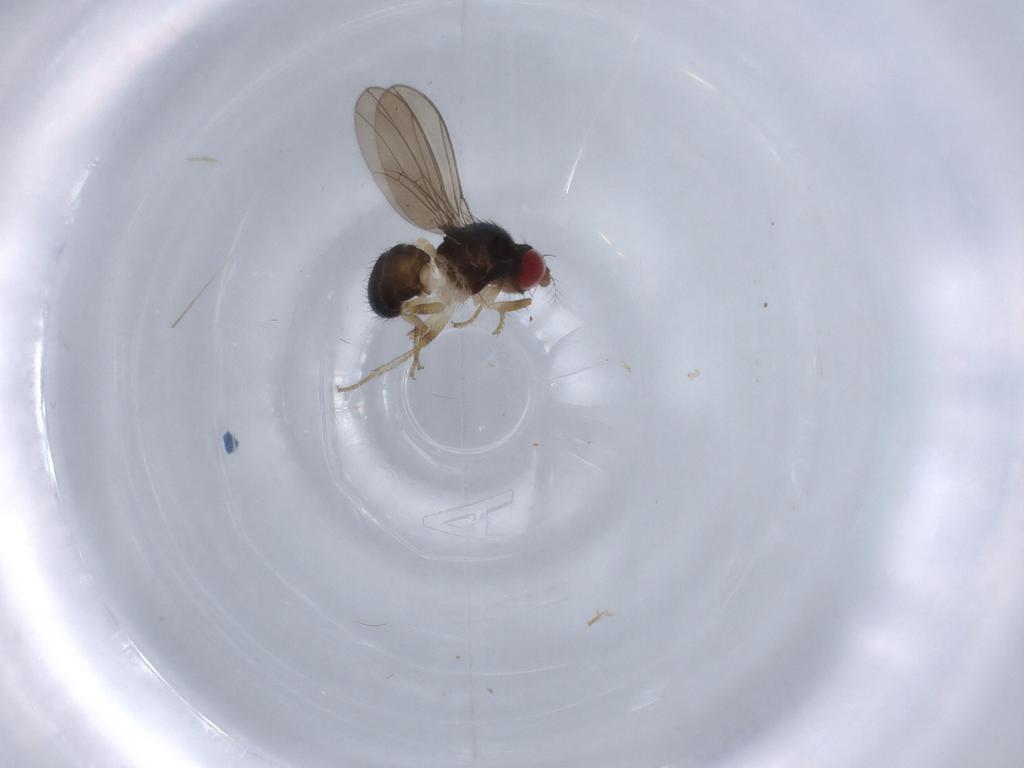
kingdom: Animalia
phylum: Arthropoda
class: Insecta
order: Diptera
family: Drosophilidae
